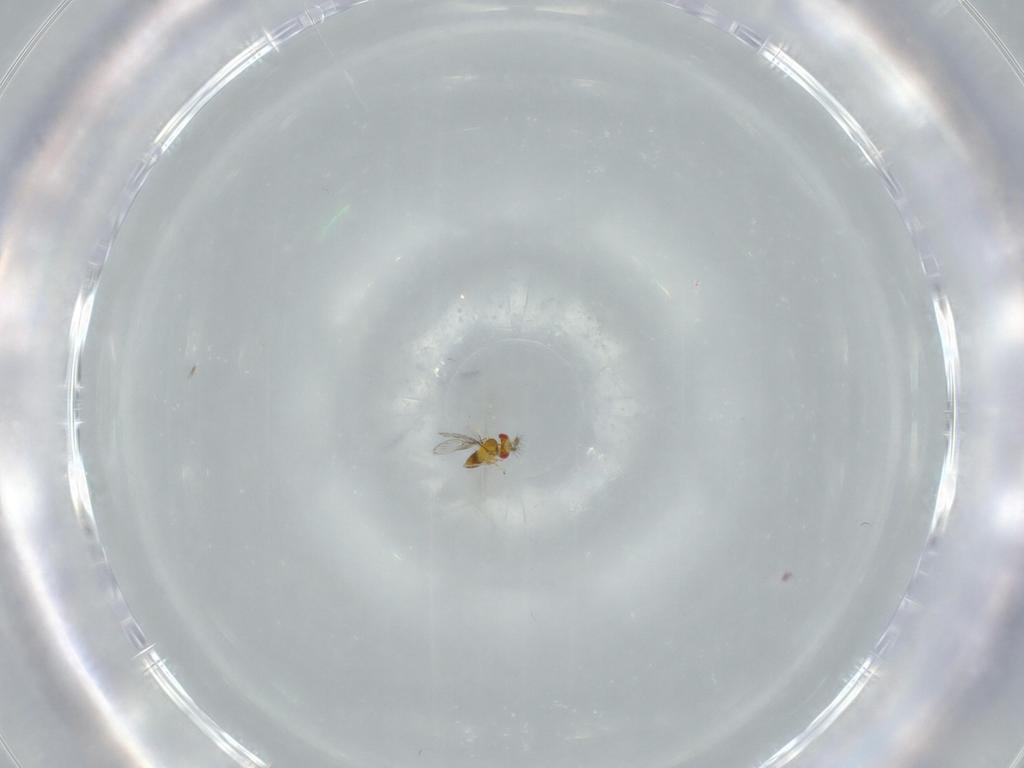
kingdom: Animalia
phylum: Arthropoda
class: Insecta
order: Hymenoptera
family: Trichogrammatidae
